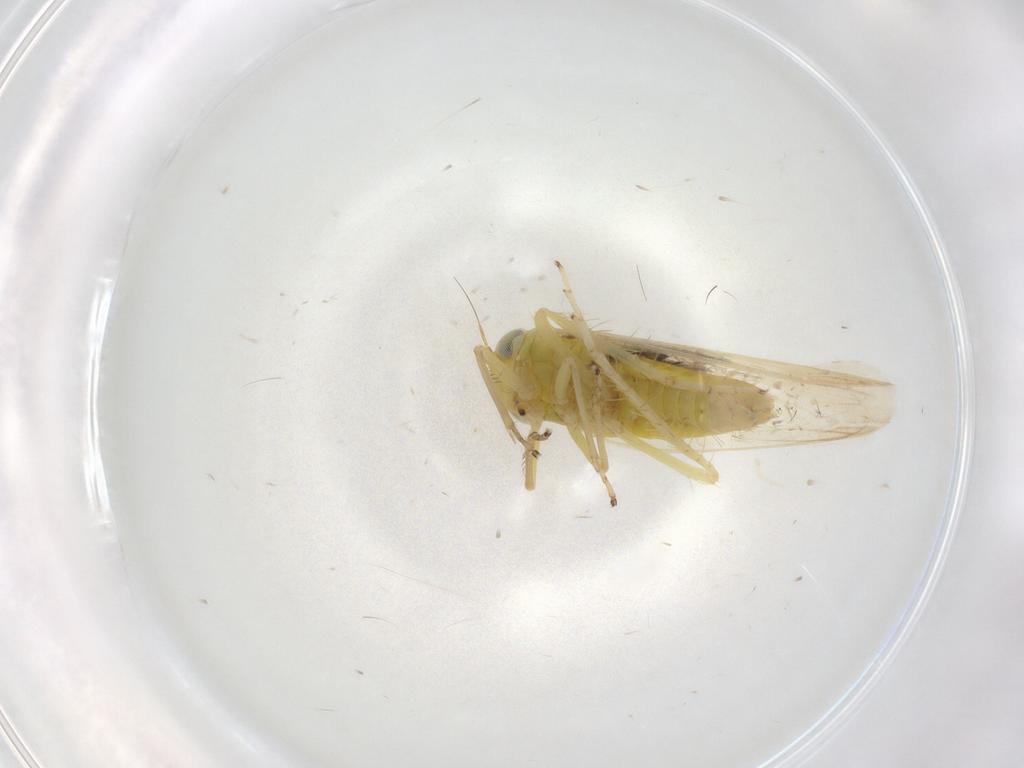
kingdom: Animalia
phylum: Arthropoda
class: Insecta
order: Hemiptera
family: Cicadellidae
